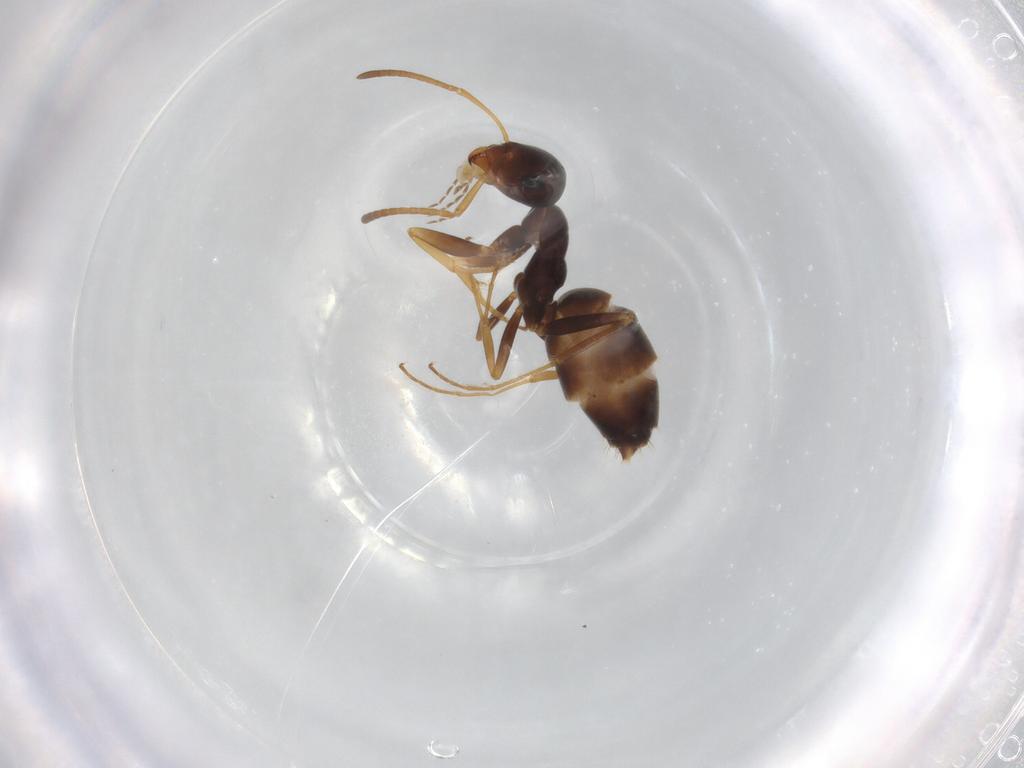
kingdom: Animalia
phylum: Arthropoda
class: Insecta
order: Hymenoptera
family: Formicidae
